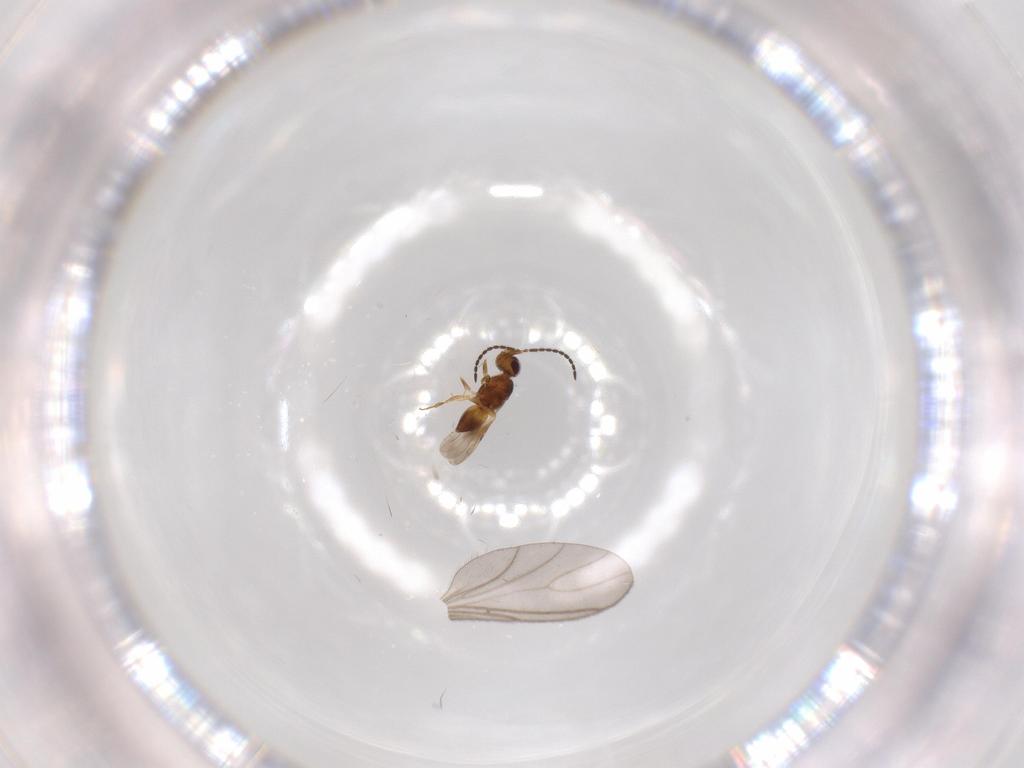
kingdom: Animalia
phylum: Arthropoda
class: Insecta
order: Hymenoptera
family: Ceraphronidae
